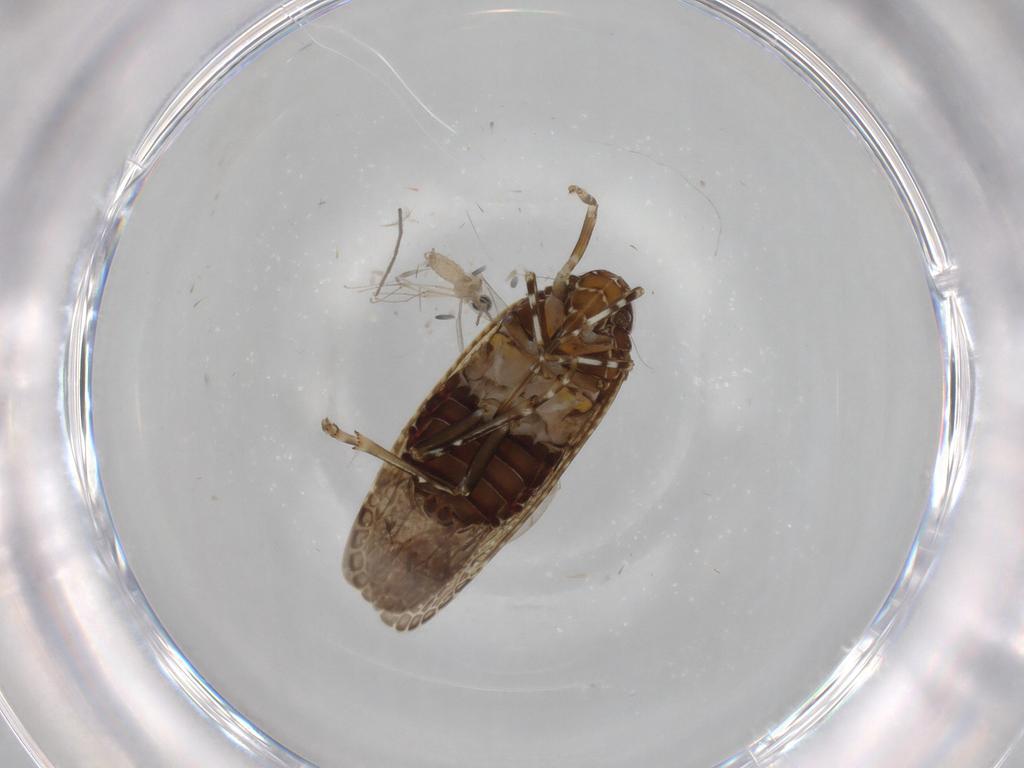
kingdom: Animalia
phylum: Arthropoda
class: Insecta
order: Diptera
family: Cecidomyiidae
